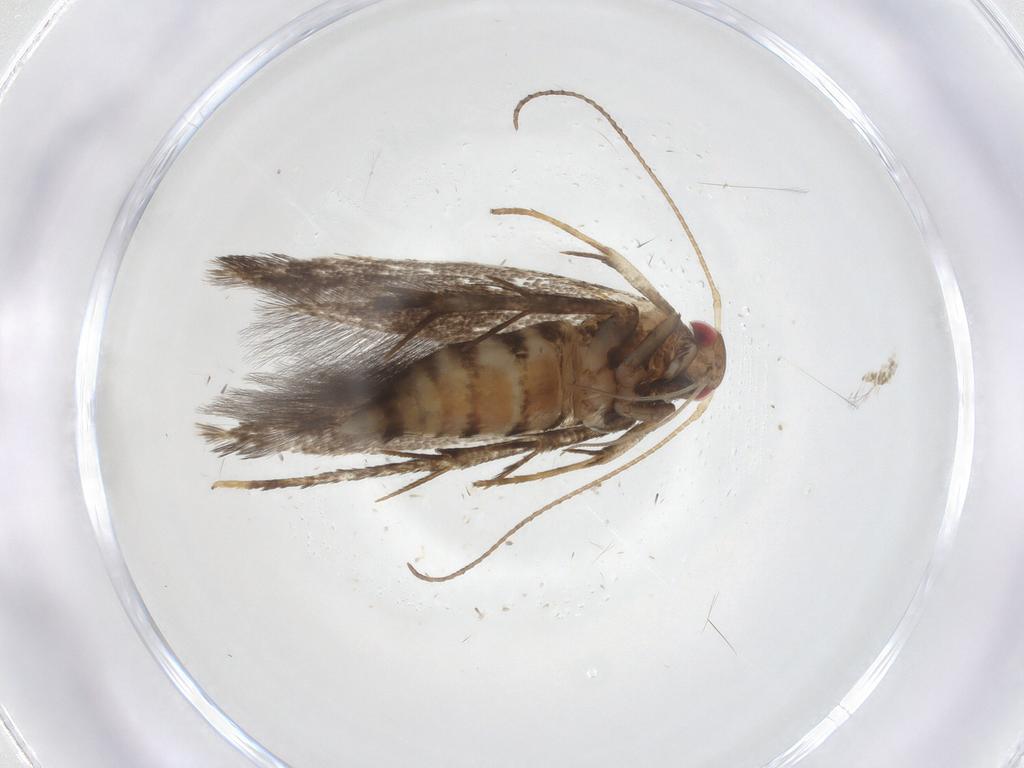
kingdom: Animalia
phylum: Arthropoda
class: Insecta
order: Lepidoptera
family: Gelechiidae
